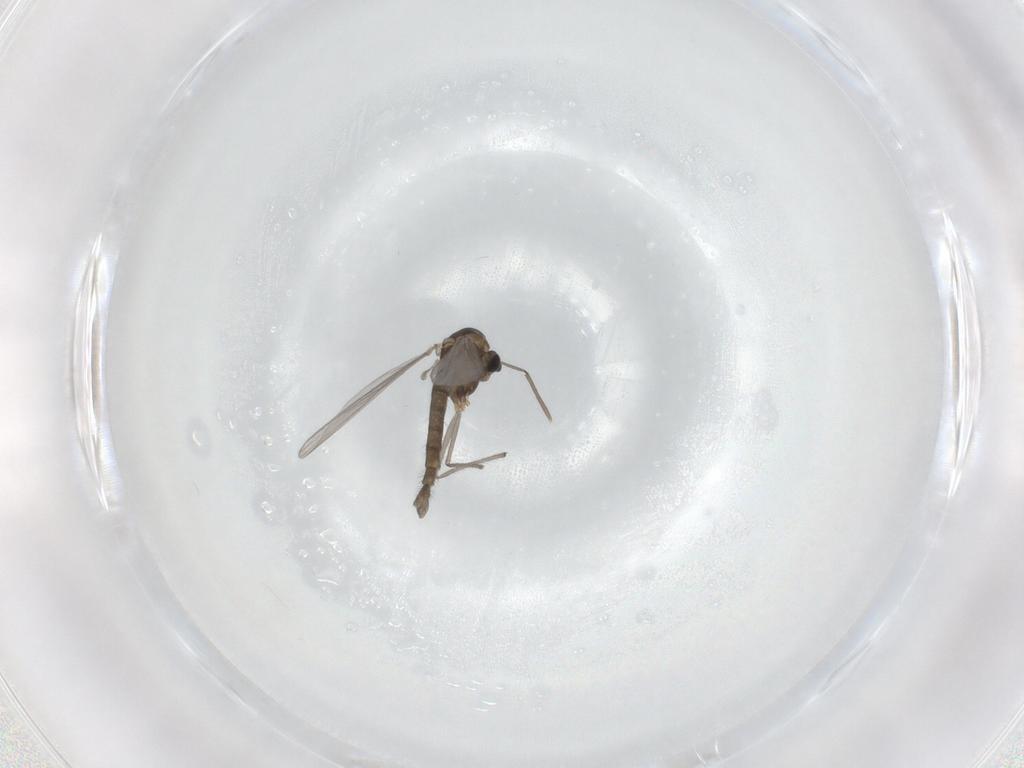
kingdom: Animalia
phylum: Arthropoda
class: Insecta
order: Diptera
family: Chironomidae
